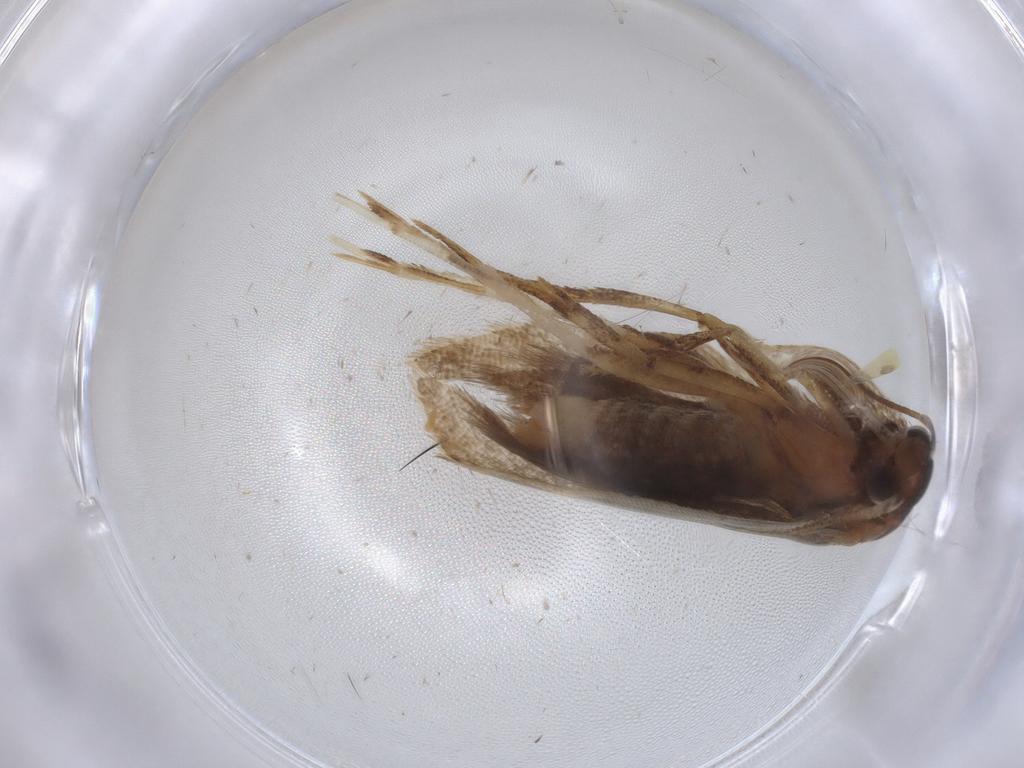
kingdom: Animalia
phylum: Arthropoda
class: Insecta
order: Lepidoptera
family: Gelechiidae
